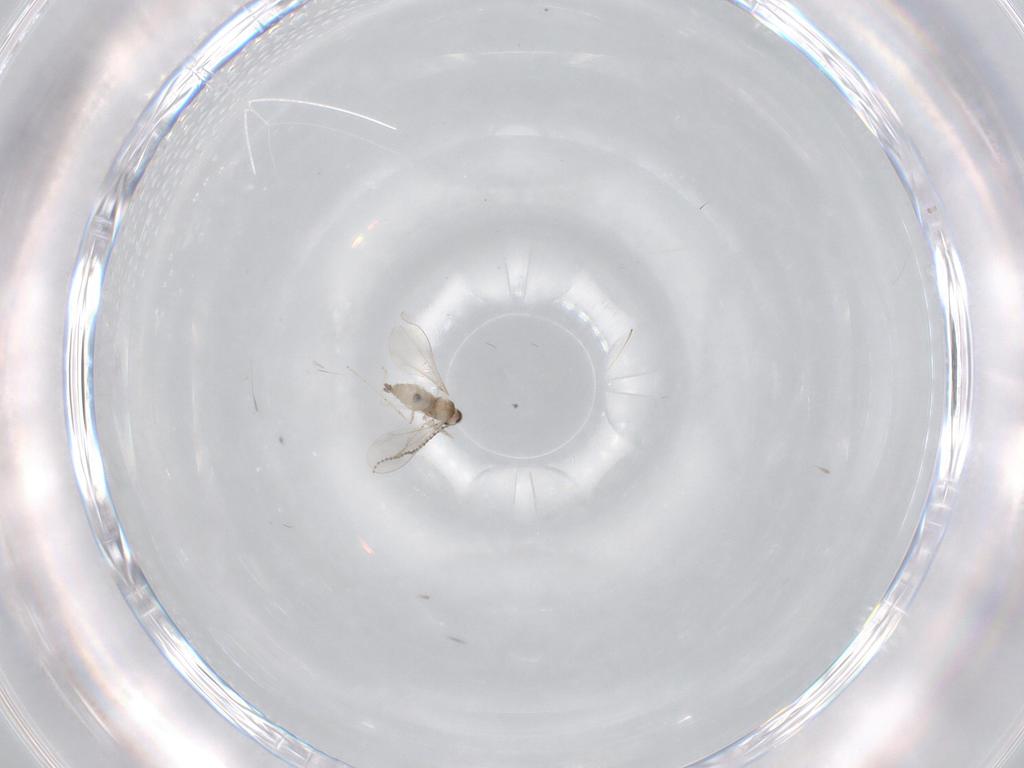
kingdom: Animalia
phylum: Arthropoda
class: Insecta
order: Diptera
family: Cecidomyiidae
